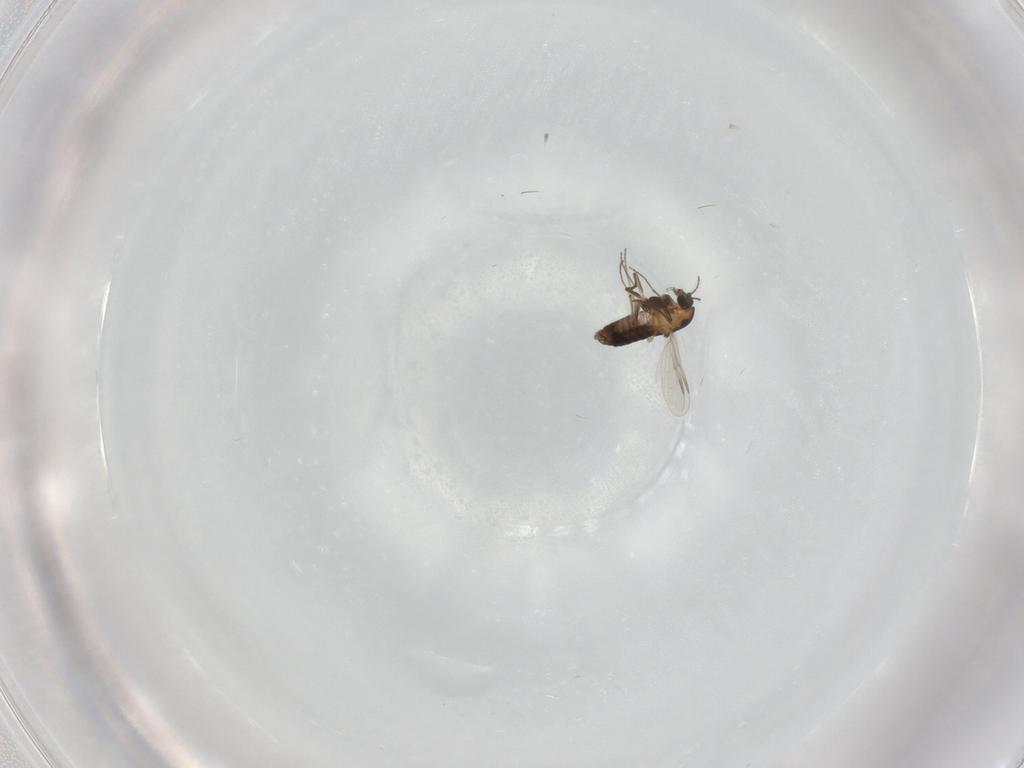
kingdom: Animalia
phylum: Arthropoda
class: Insecta
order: Diptera
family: Chironomidae
